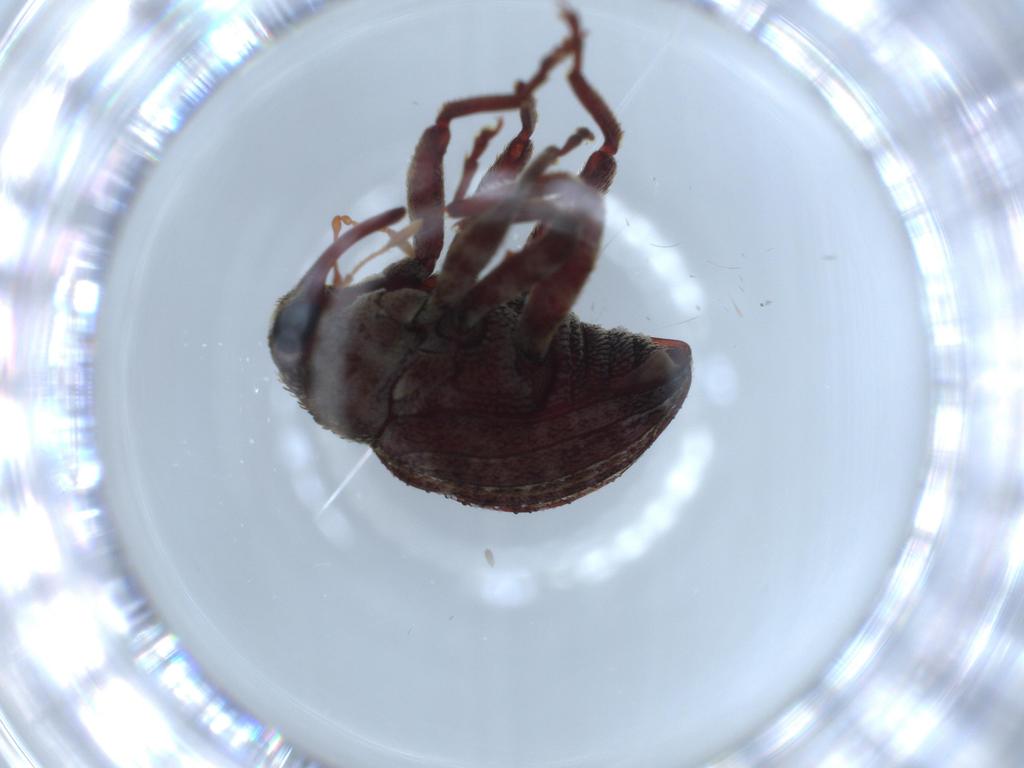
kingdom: Animalia
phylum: Arthropoda
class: Insecta
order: Coleoptera
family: Curculionidae
